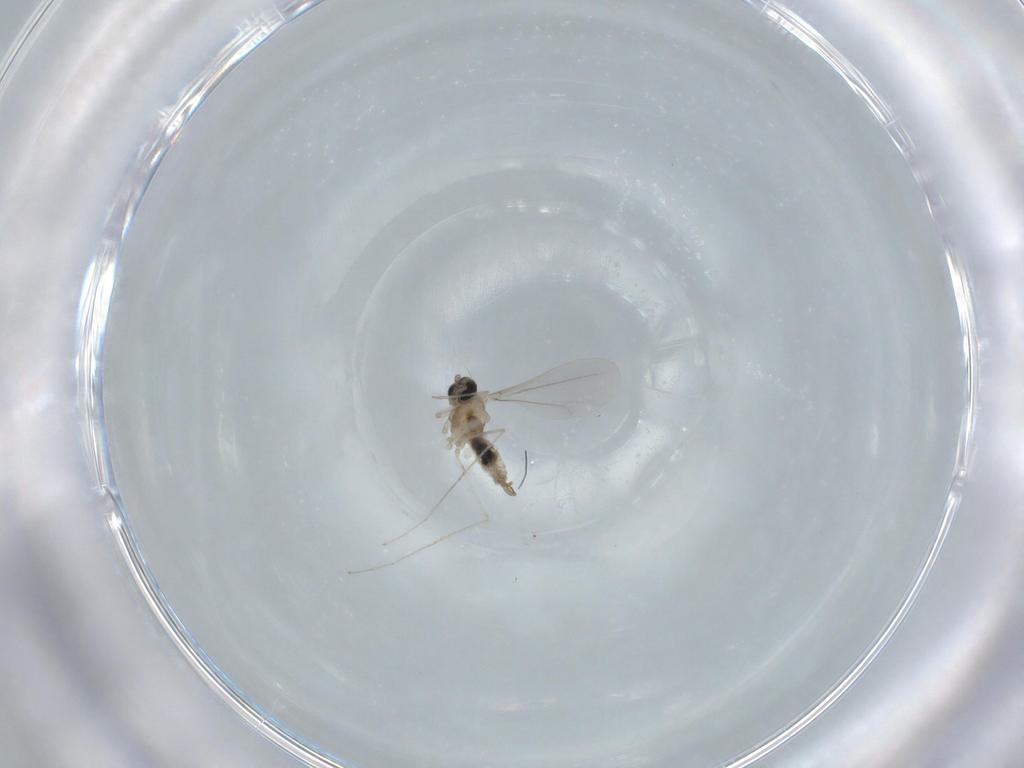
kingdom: Animalia
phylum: Arthropoda
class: Insecta
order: Diptera
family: Cecidomyiidae
